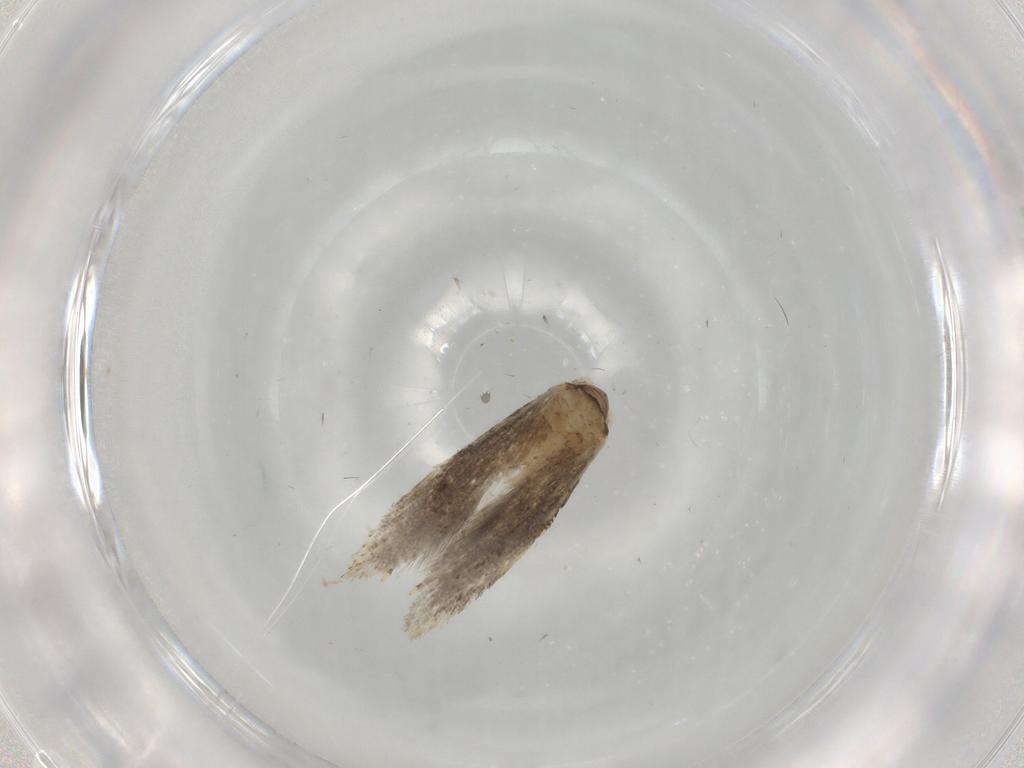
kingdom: Animalia
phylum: Arthropoda
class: Insecta
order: Lepidoptera
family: Tineidae
